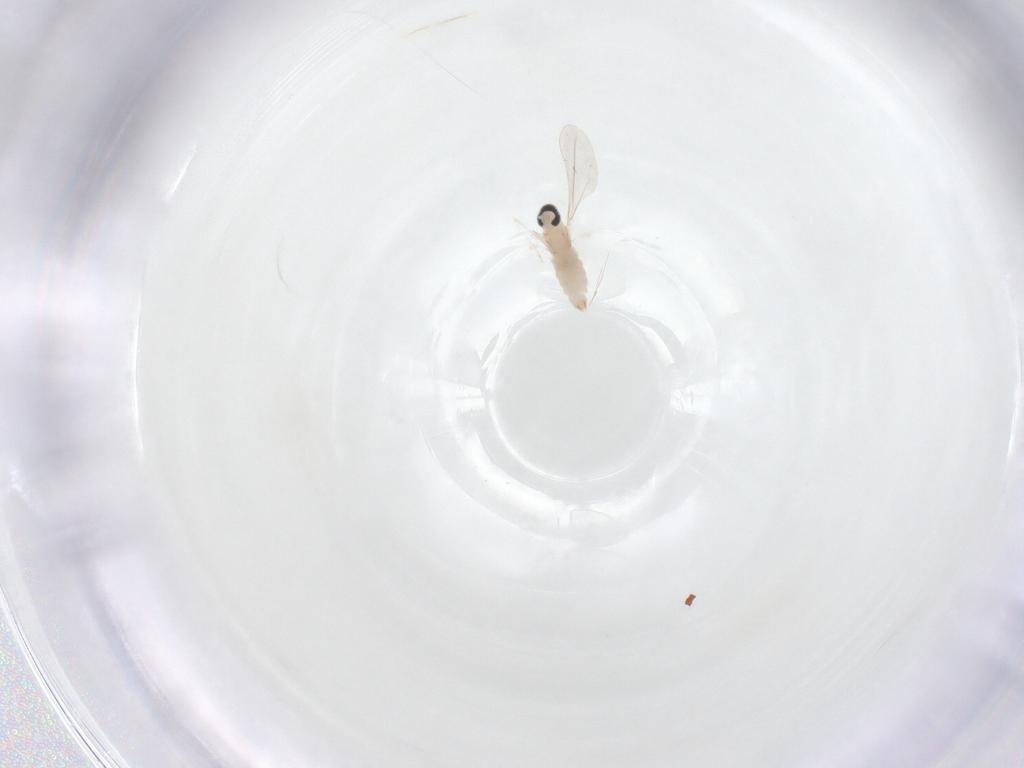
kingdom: Animalia
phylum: Arthropoda
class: Insecta
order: Diptera
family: Cecidomyiidae
